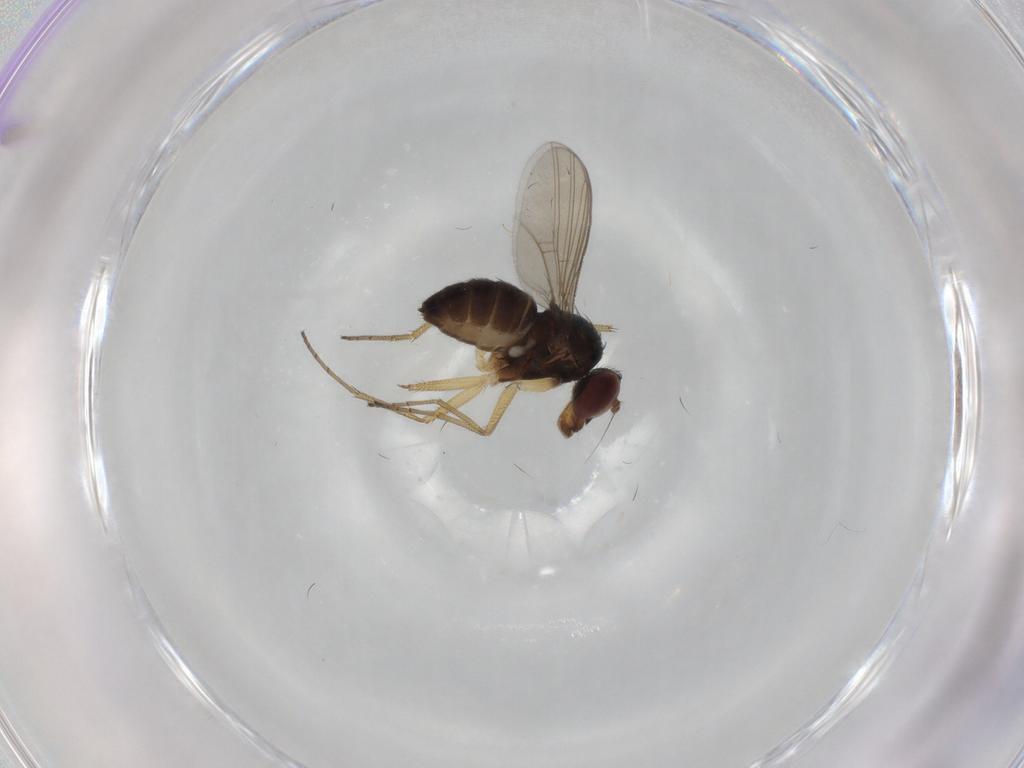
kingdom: Animalia
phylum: Arthropoda
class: Insecta
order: Diptera
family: Dolichopodidae
